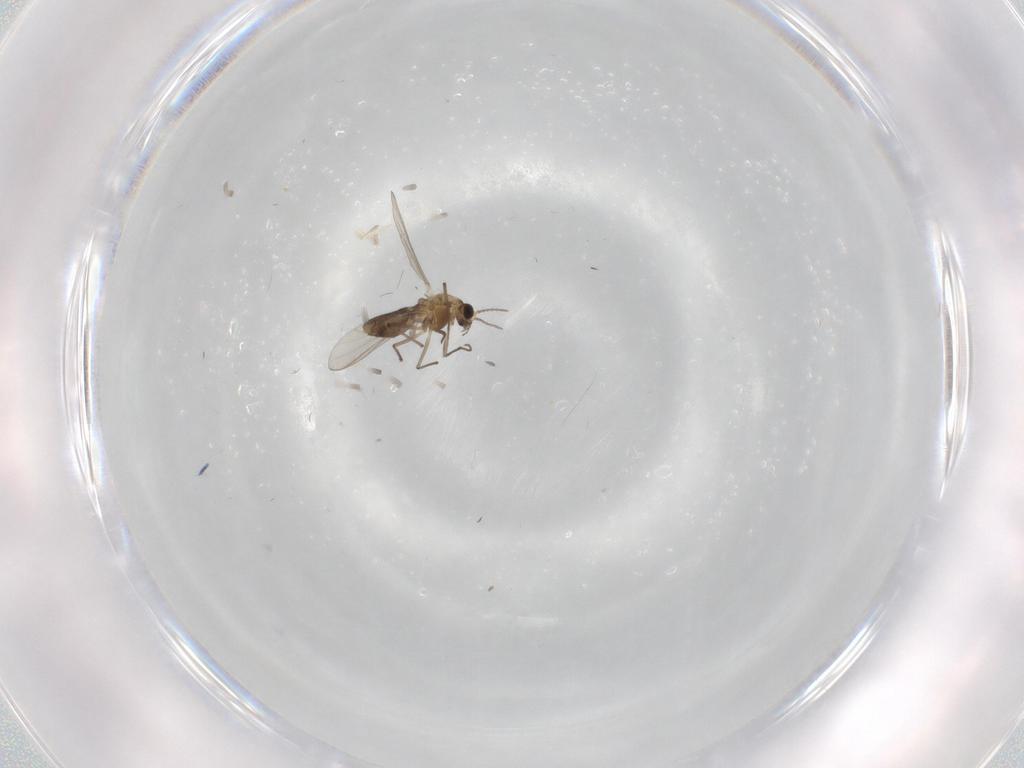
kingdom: Animalia
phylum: Arthropoda
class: Insecta
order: Diptera
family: Chironomidae
